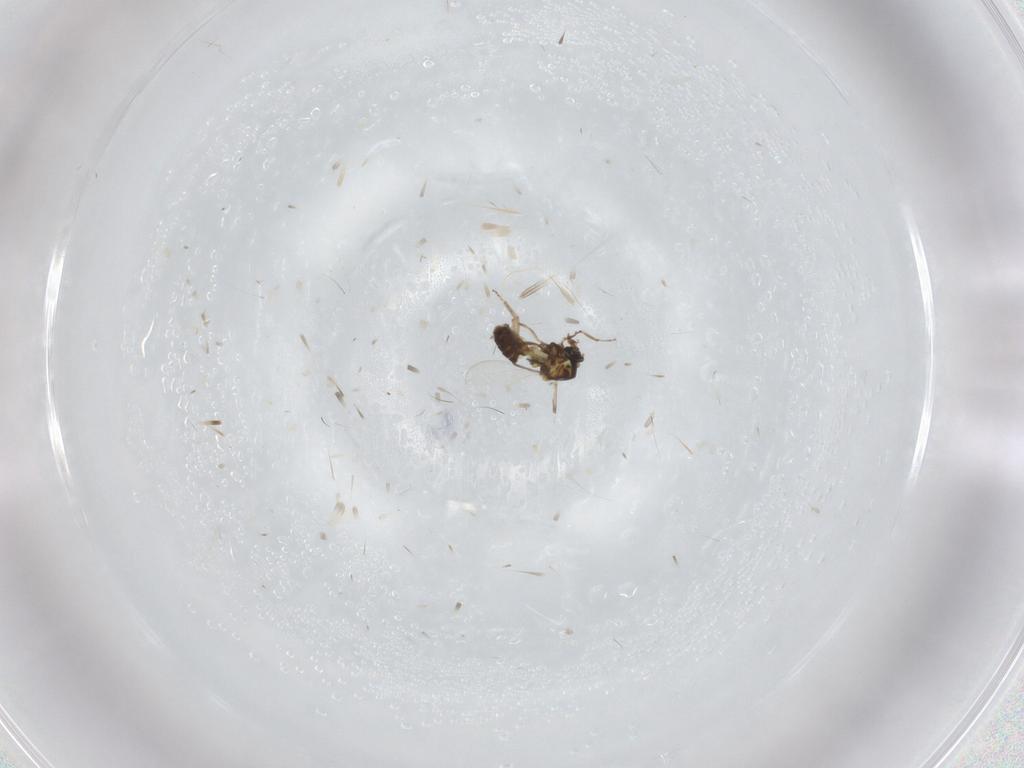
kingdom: Animalia
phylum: Arthropoda
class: Insecta
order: Diptera
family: Ceratopogonidae
